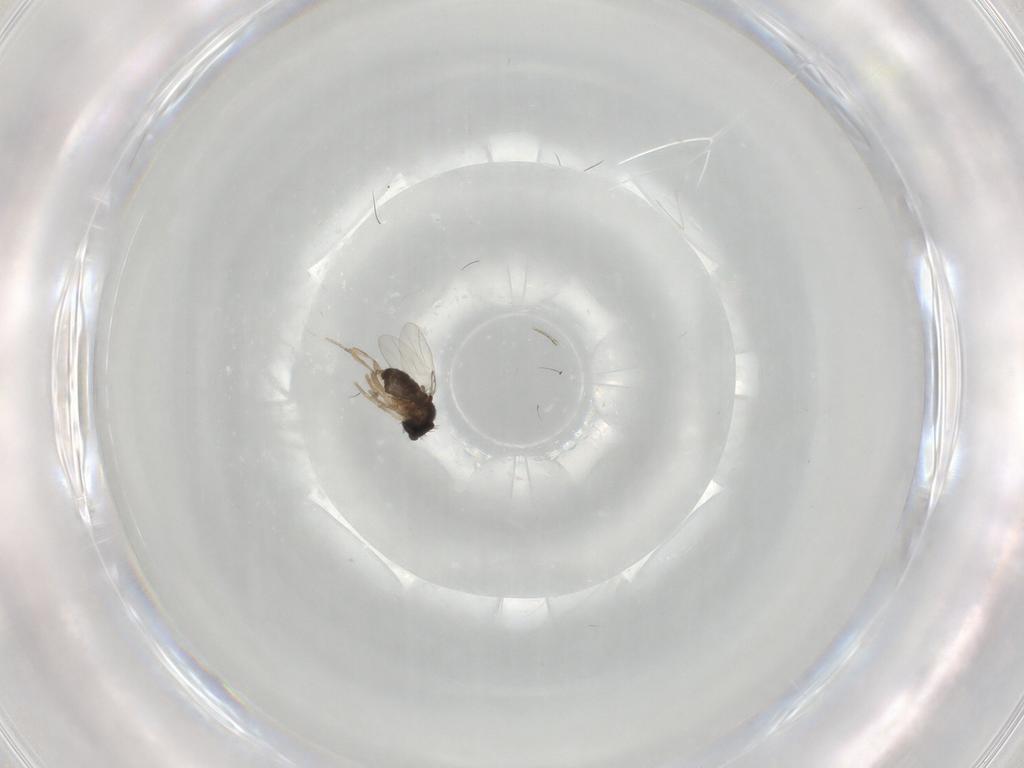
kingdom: Animalia
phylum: Arthropoda
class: Insecta
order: Diptera
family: Phoridae
